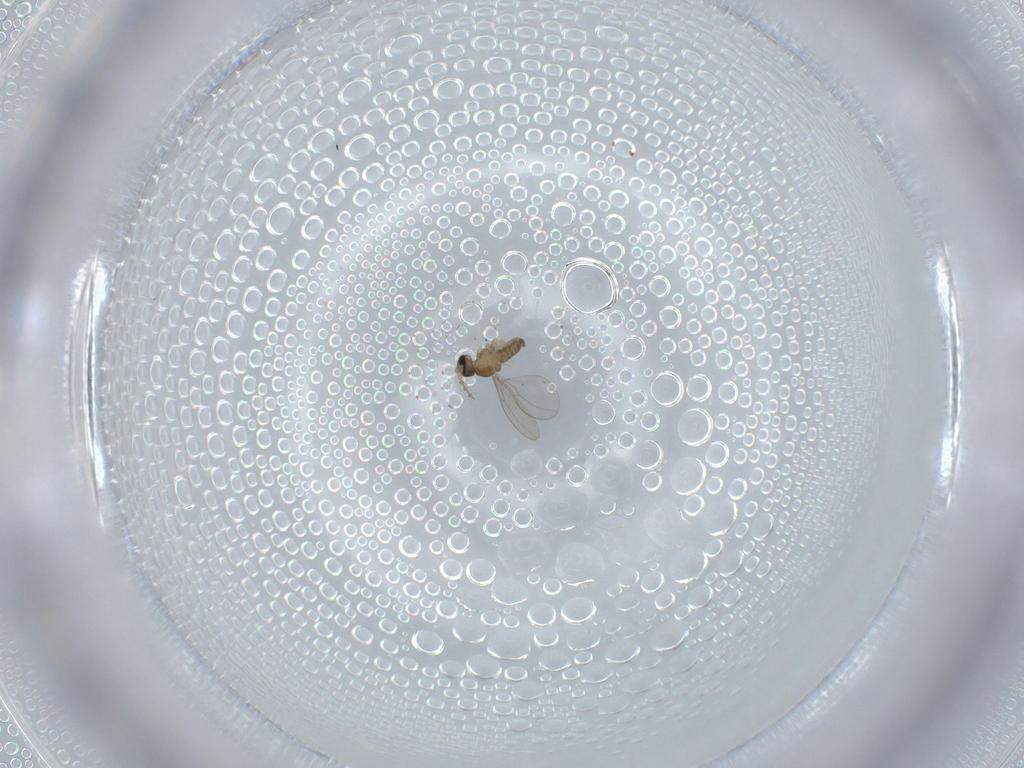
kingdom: Animalia
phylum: Arthropoda
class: Insecta
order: Diptera
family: Cecidomyiidae
